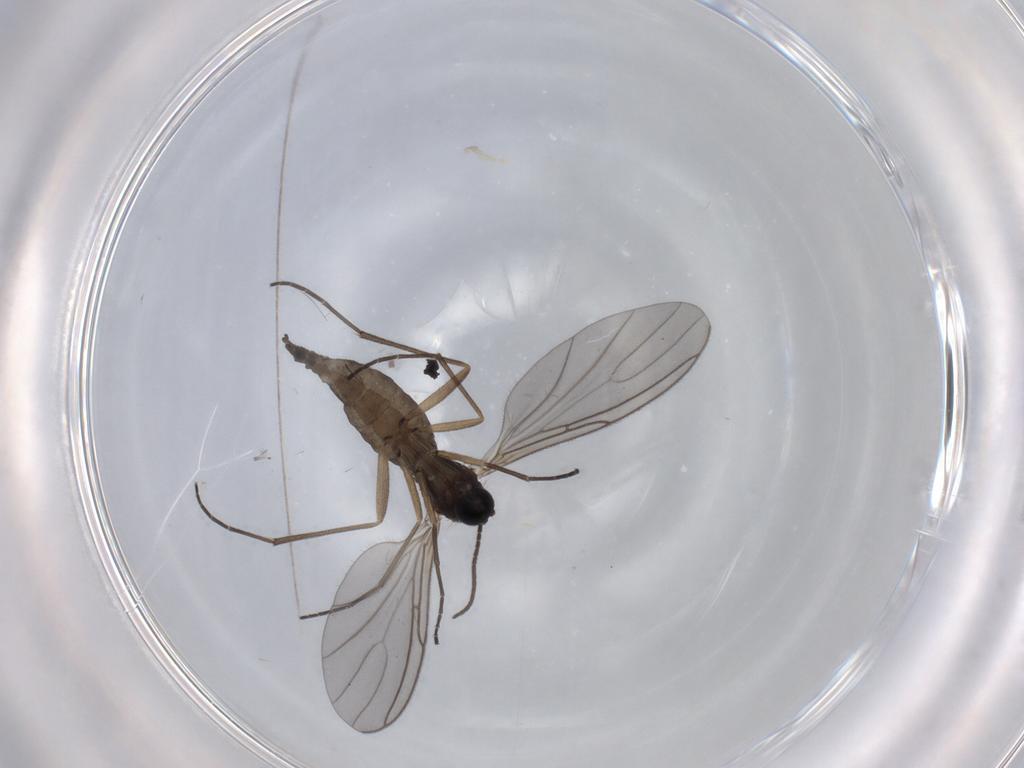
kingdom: Animalia
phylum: Arthropoda
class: Insecta
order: Diptera
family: Sciaridae
